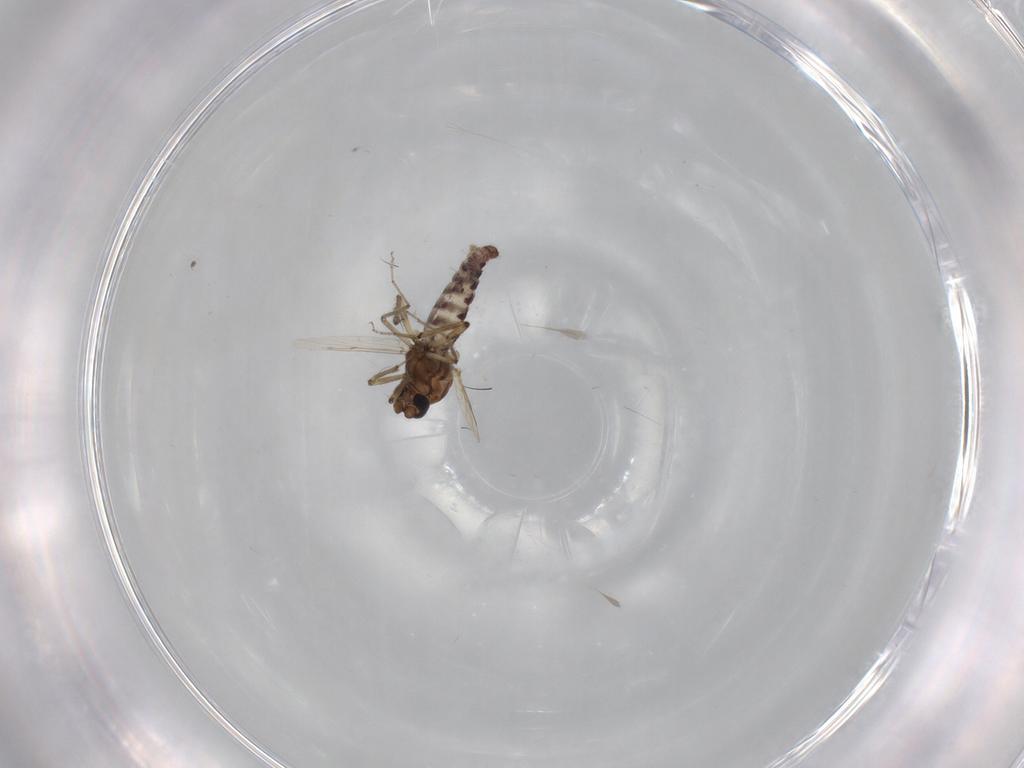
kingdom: Animalia
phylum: Arthropoda
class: Insecta
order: Diptera
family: Ceratopogonidae
